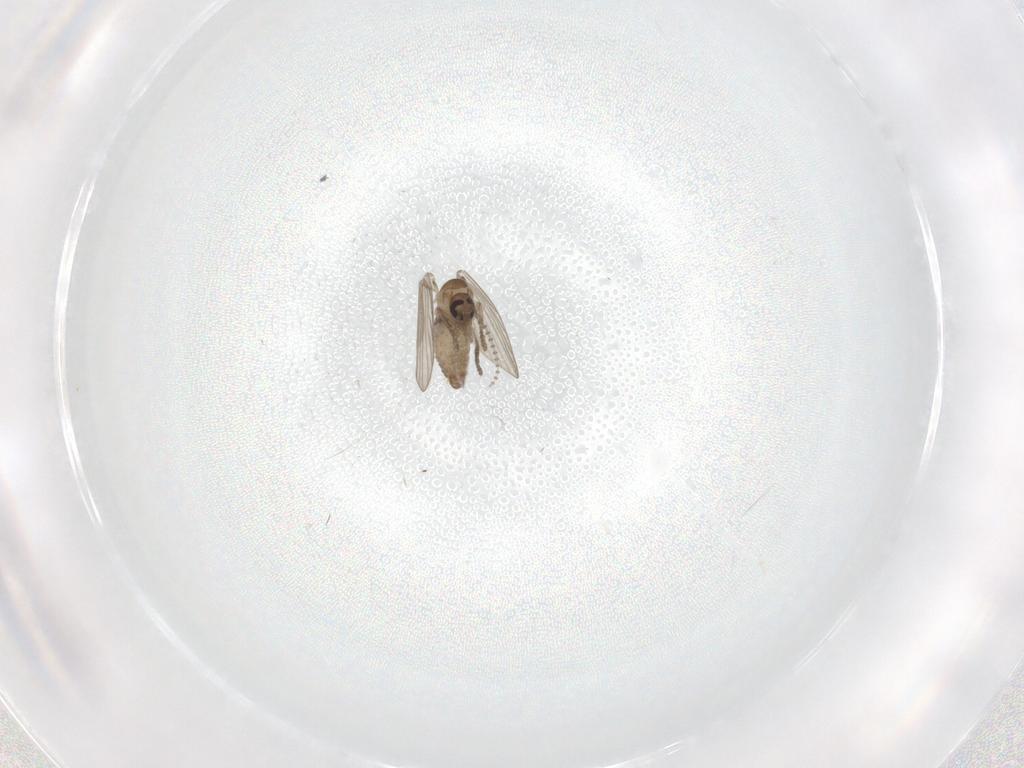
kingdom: Animalia
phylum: Arthropoda
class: Insecta
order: Diptera
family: Psychodidae
